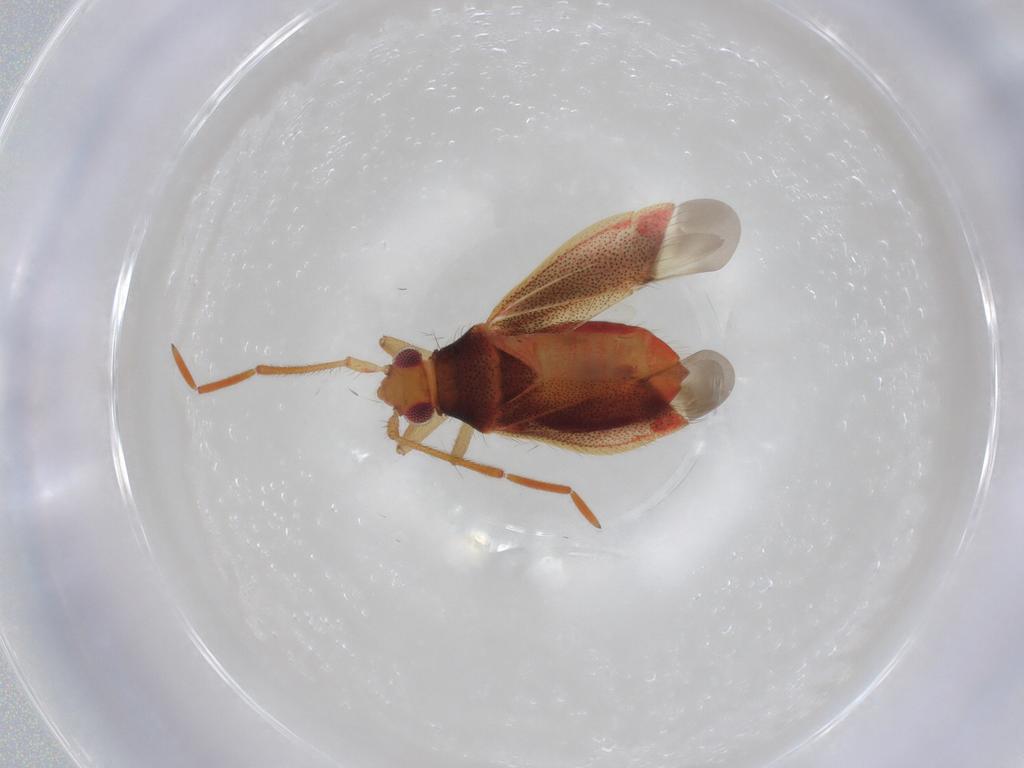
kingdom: Animalia
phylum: Arthropoda
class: Insecta
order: Hemiptera
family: Miridae
